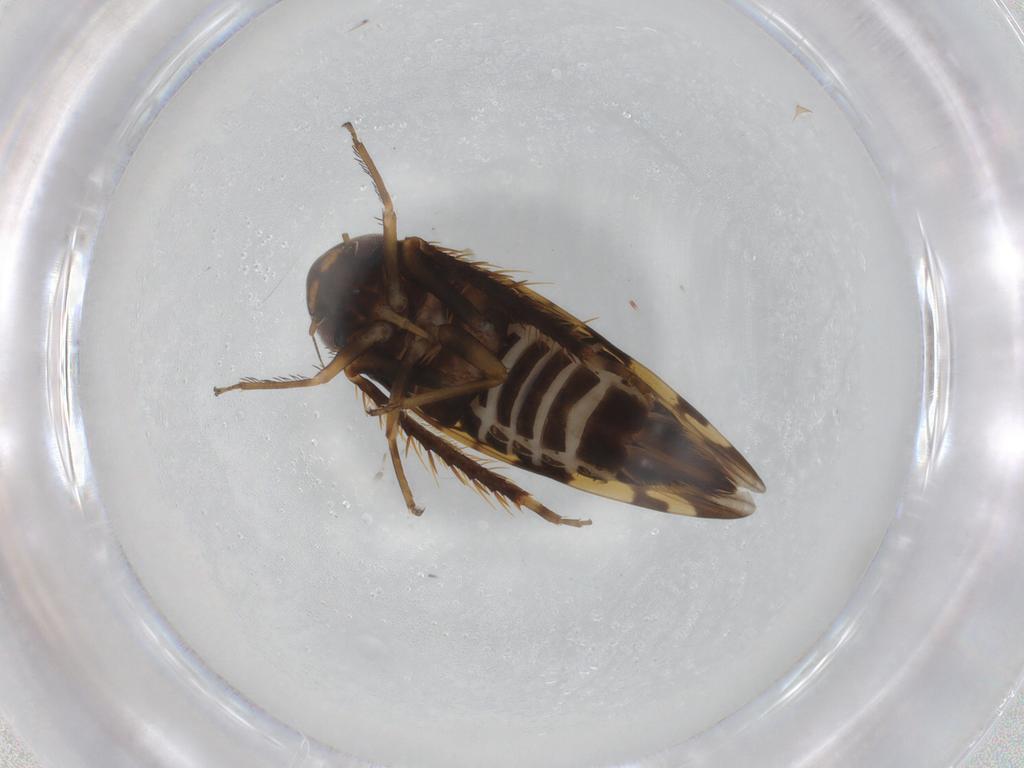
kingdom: Animalia
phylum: Arthropoda
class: Insecta
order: Hemiptera
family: Cicadellidae
